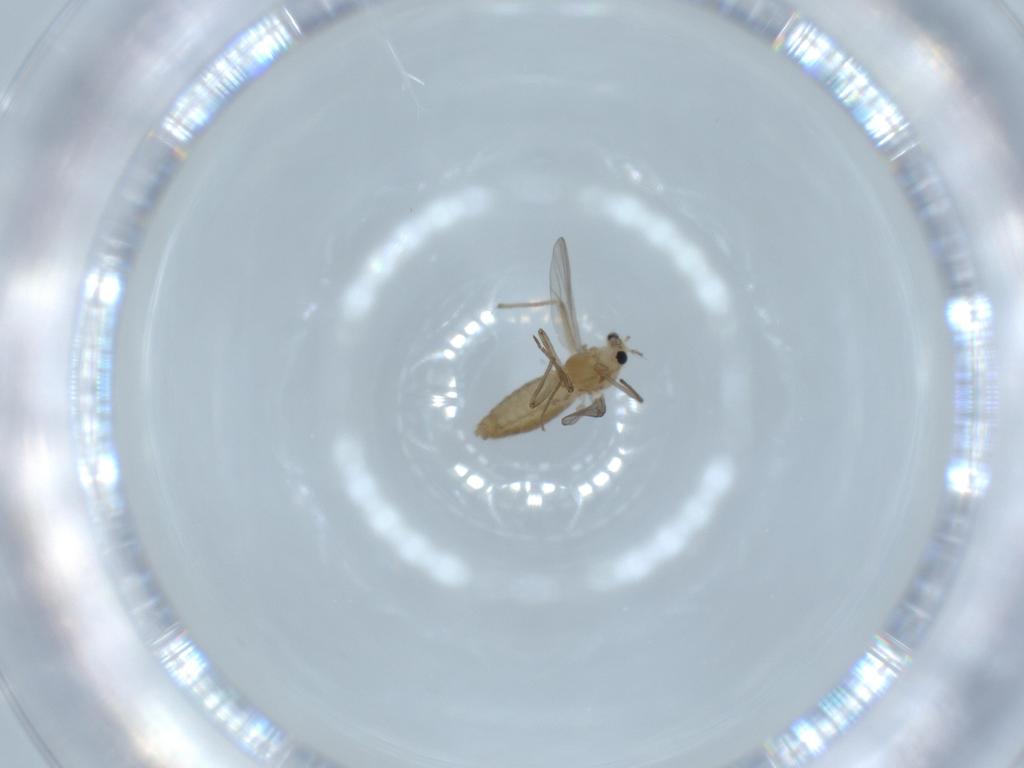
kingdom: Animalia
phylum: Arthropoda
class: Insecta
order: Diptera
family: Chironomidae
